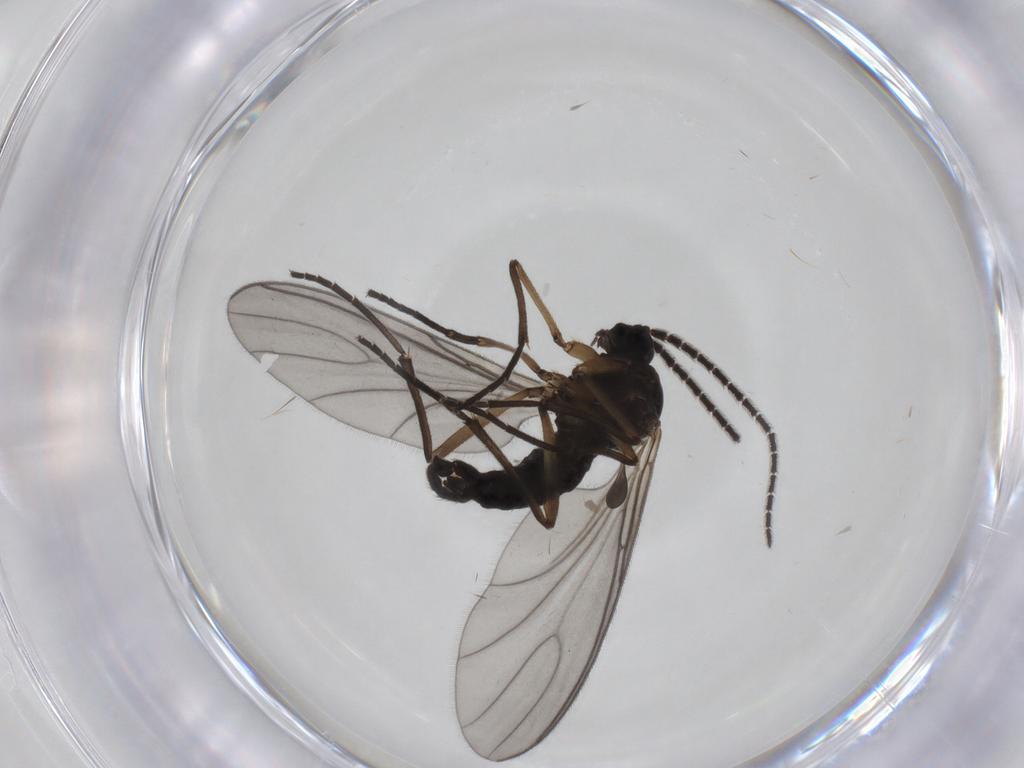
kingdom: Animalia
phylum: Arthropoda
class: Insecta
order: Diptera
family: Sciaridae
